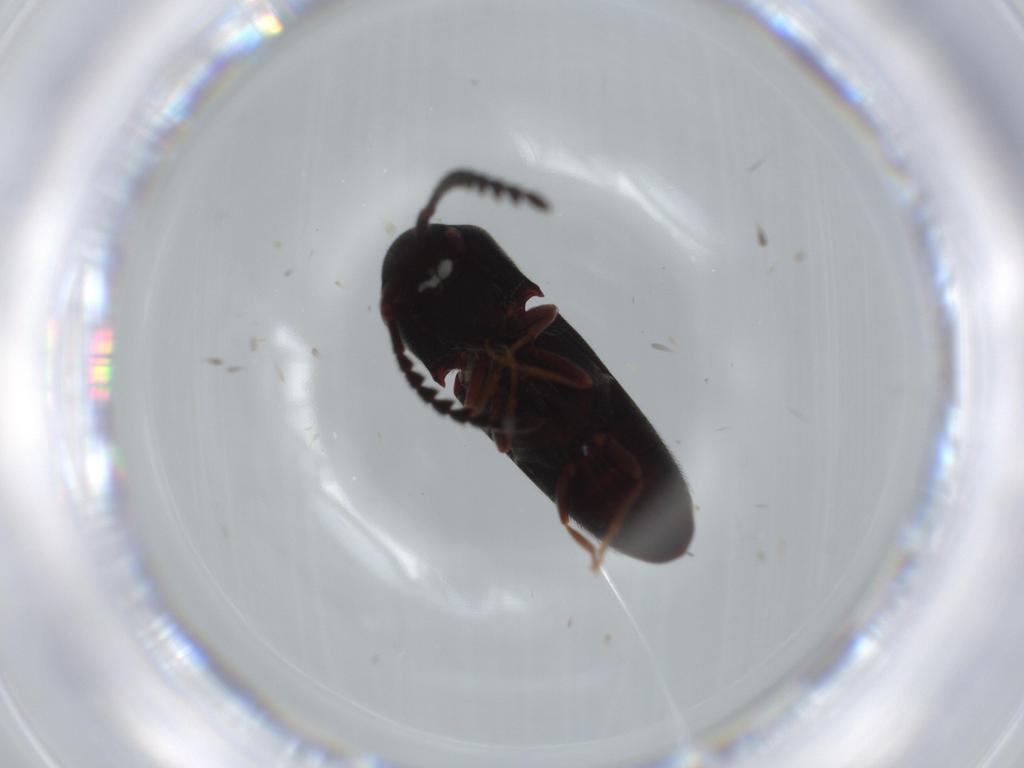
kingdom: Animalia
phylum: Arthropoda
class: Insecta
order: Coleoptera
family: Eucnemidae
